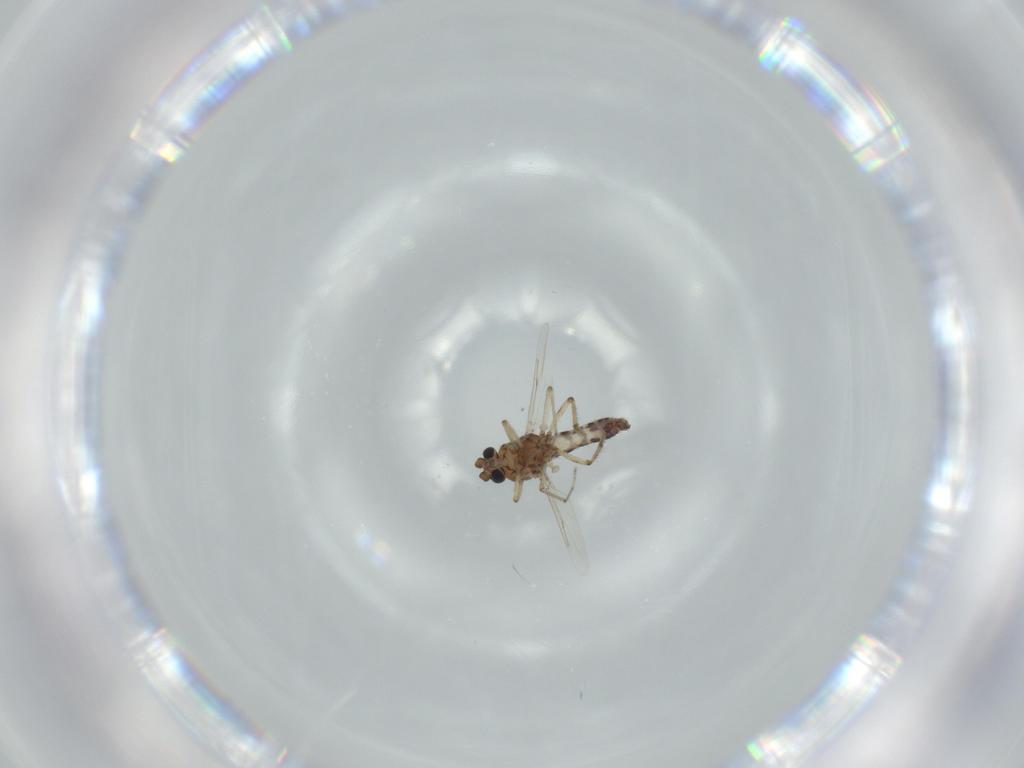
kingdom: Animalia
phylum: Arthropoda
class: Insecta
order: Diptera
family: Ceratopogonidae
